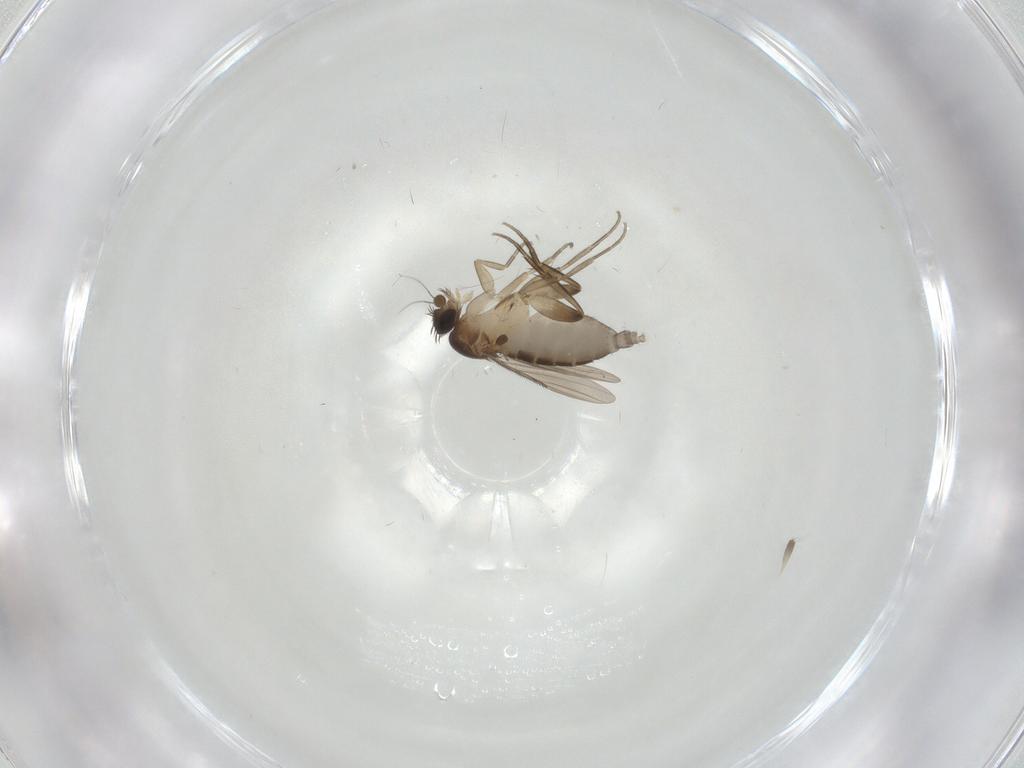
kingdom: Animalia
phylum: Arthropoda
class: Insecta
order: Diptera
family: Phoridae
